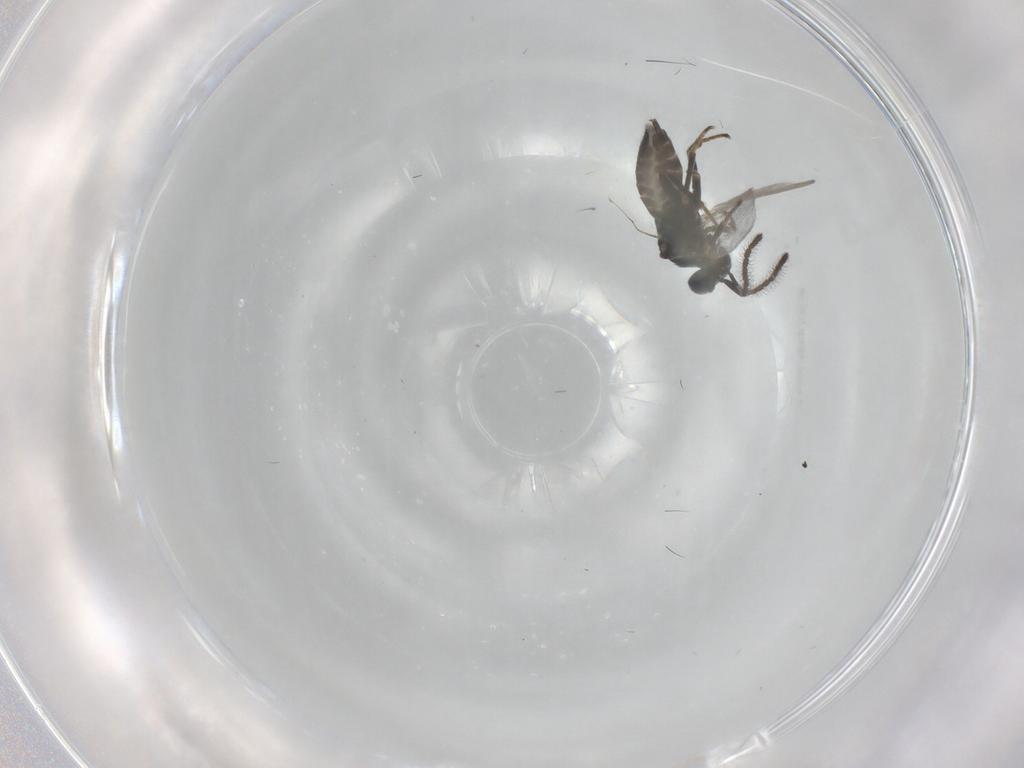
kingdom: Animalia
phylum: Arthropoda
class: Insecta
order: Hymenoptera
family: Encyrtidae
